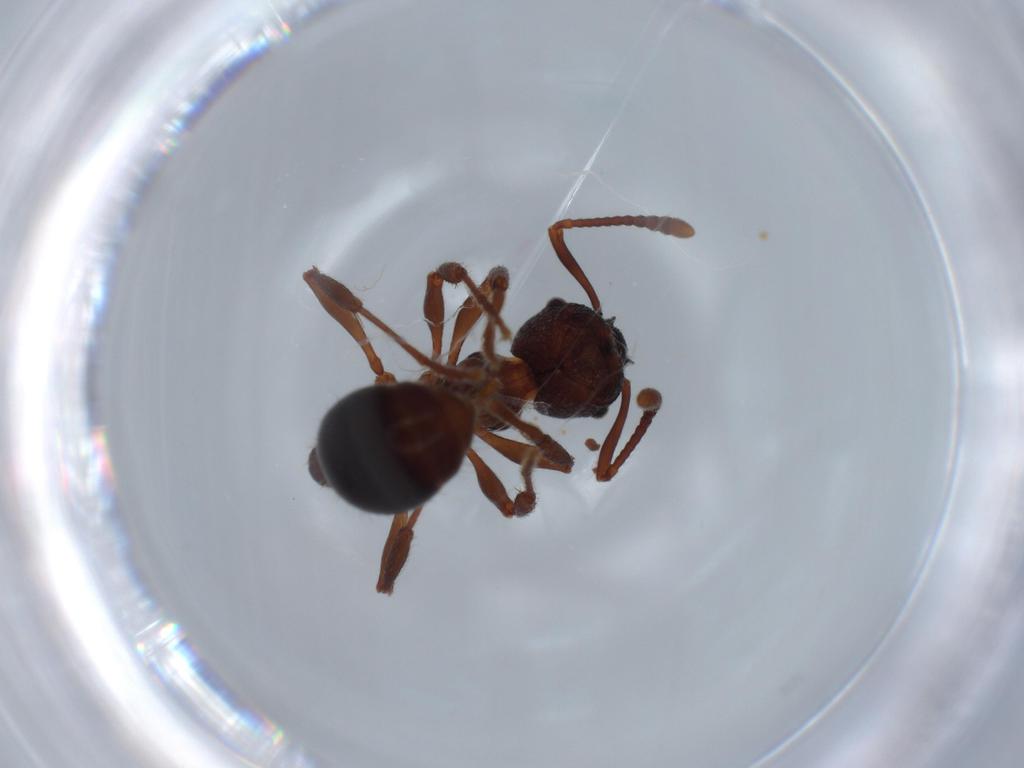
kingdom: Animalia
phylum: Arthropoda
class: Insecta
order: Hymenoptera
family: Formicidae
